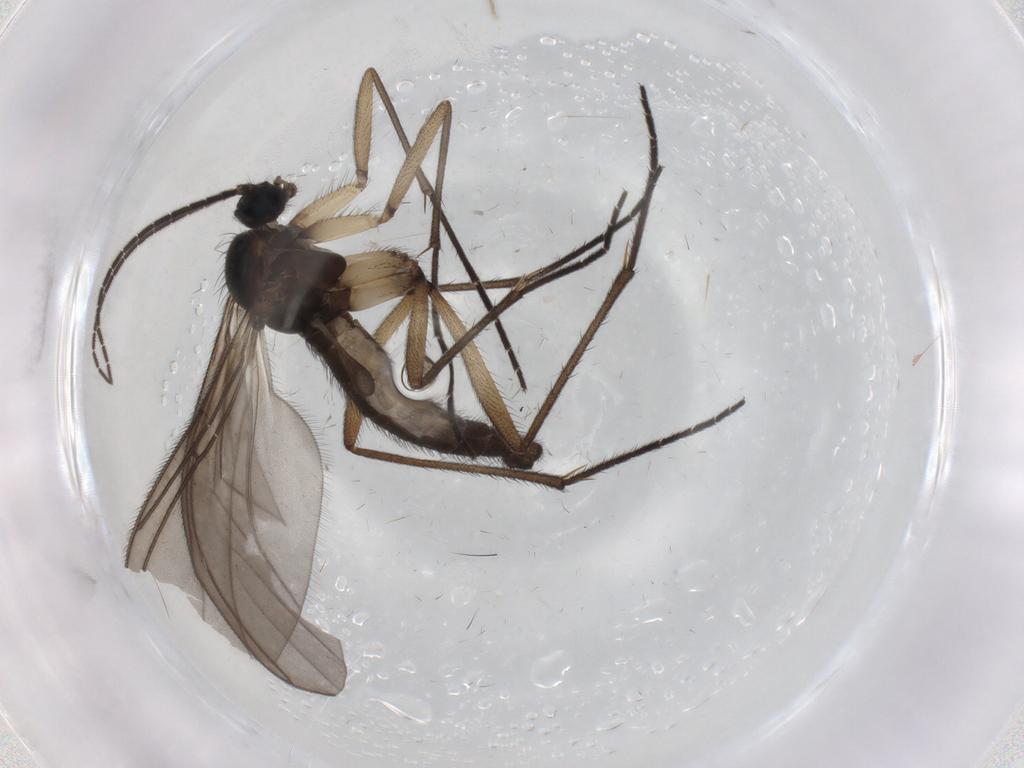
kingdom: Animalia
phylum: Arthropoda
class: Insecta
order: Diptera
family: Sciaridae
